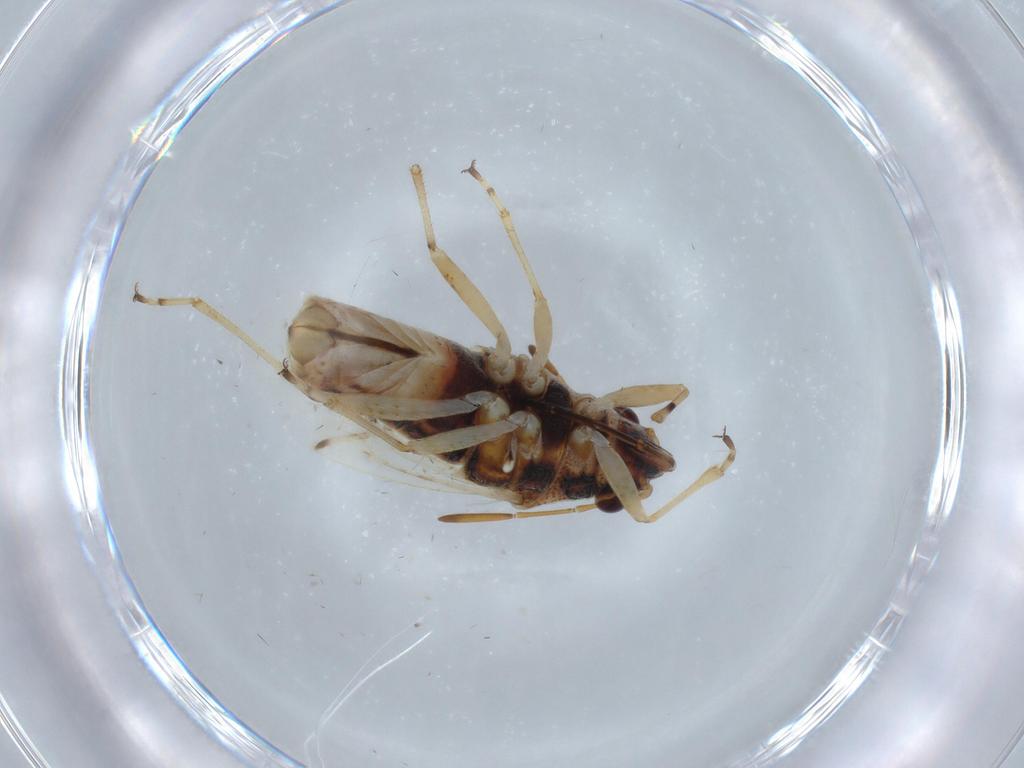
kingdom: Animalia
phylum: Arthropoda
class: Insecta
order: Hemiptera
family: Lygaeidae
